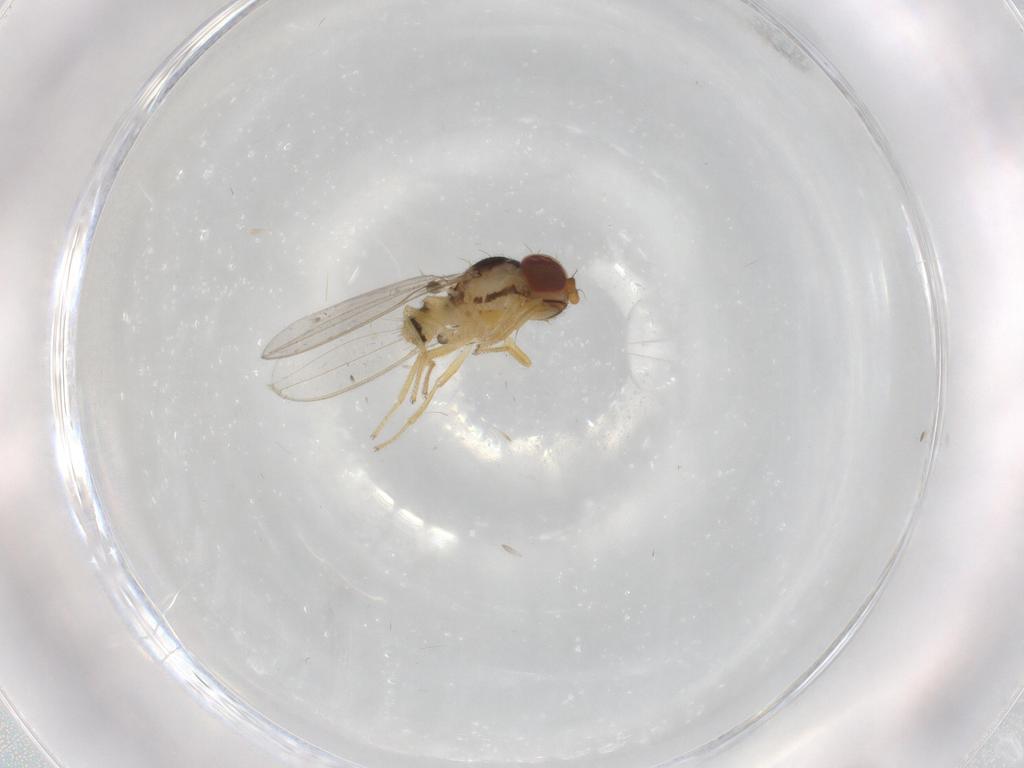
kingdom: Animalia
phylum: Arthropoda
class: Insecta
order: Diptera
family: Asteiidae
